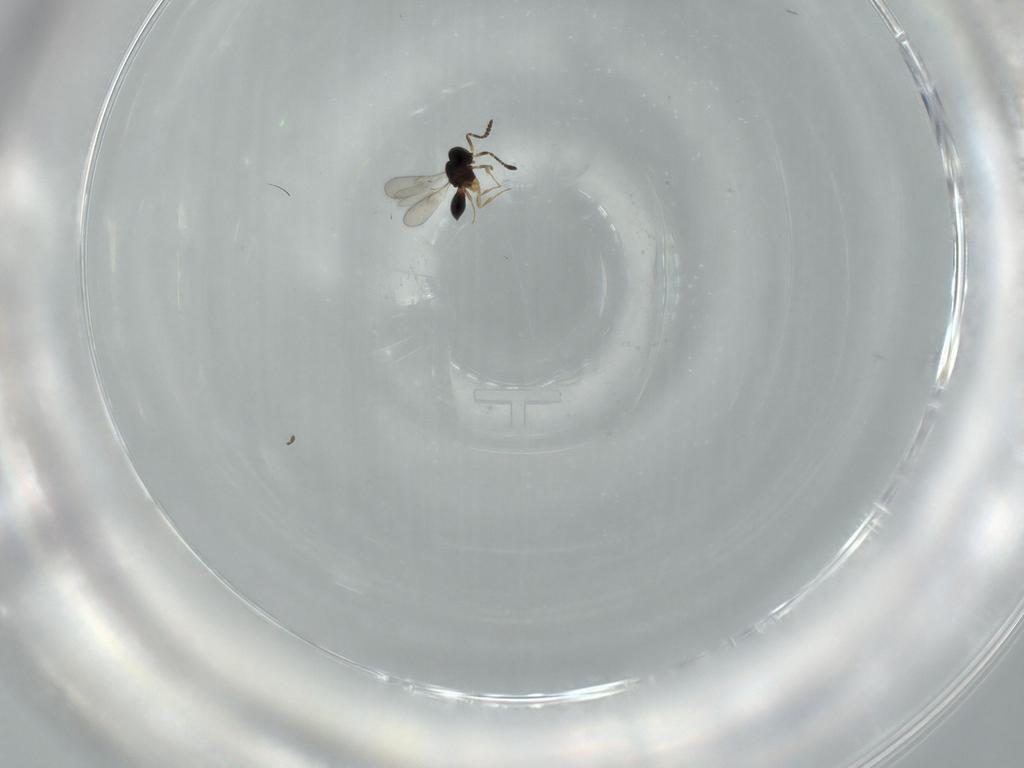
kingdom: Animalia
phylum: Arthropoda
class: Insecta
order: Hymenoptera
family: Scelionidae
